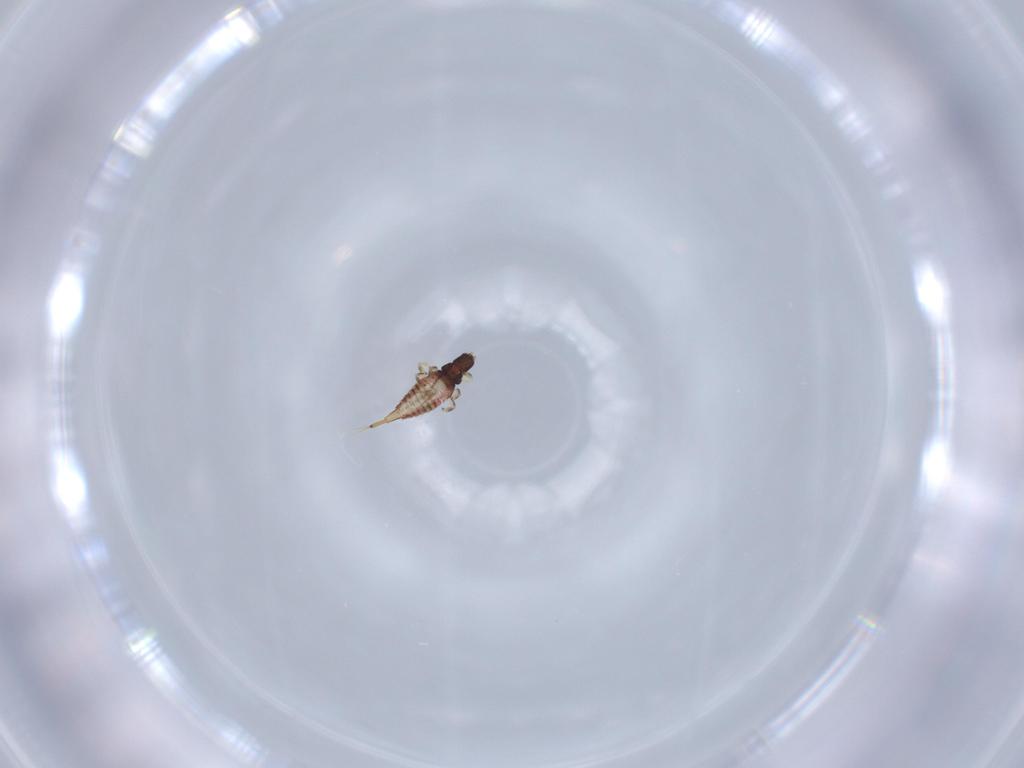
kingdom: Animalia
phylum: Arthropoda
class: Insecta
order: Thysanoptera
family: Phlaeothripidae
